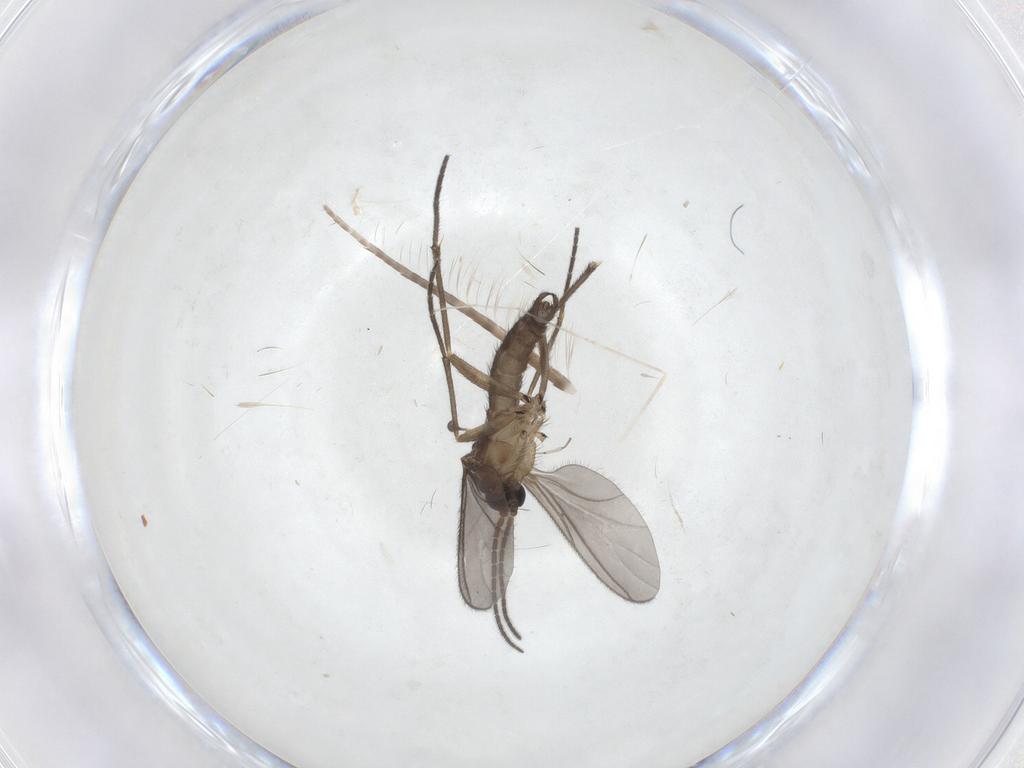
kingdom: Animalia
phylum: Arthropoda
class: Insecta
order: Diptera
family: Sciaridae
